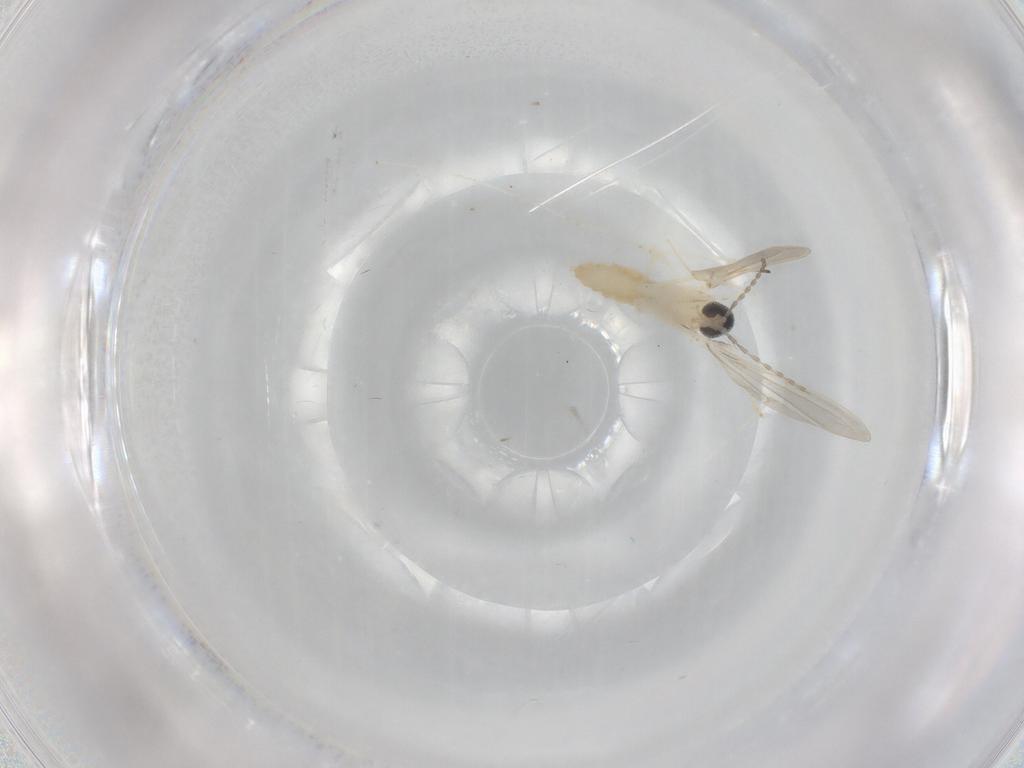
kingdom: Animalia
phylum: Arthropoda
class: Insecta
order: Diptera
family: Cecidomyiidae
